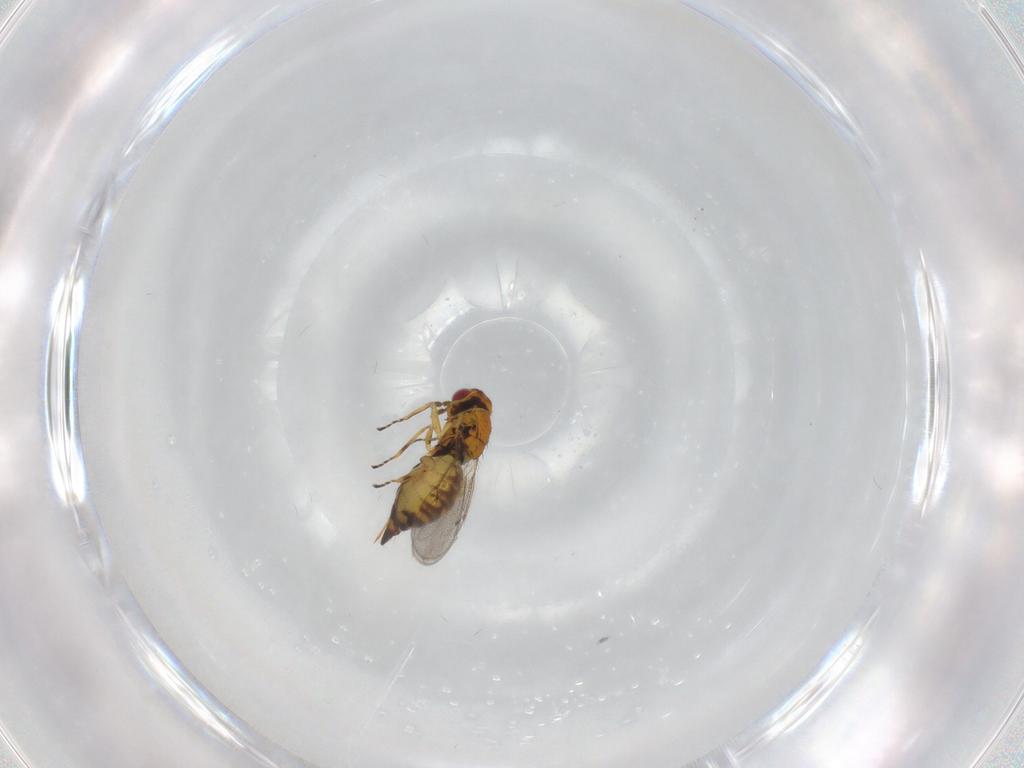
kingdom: Animalia
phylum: Arthropoda
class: Insecta
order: Hymenoptera
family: Eulophidae
